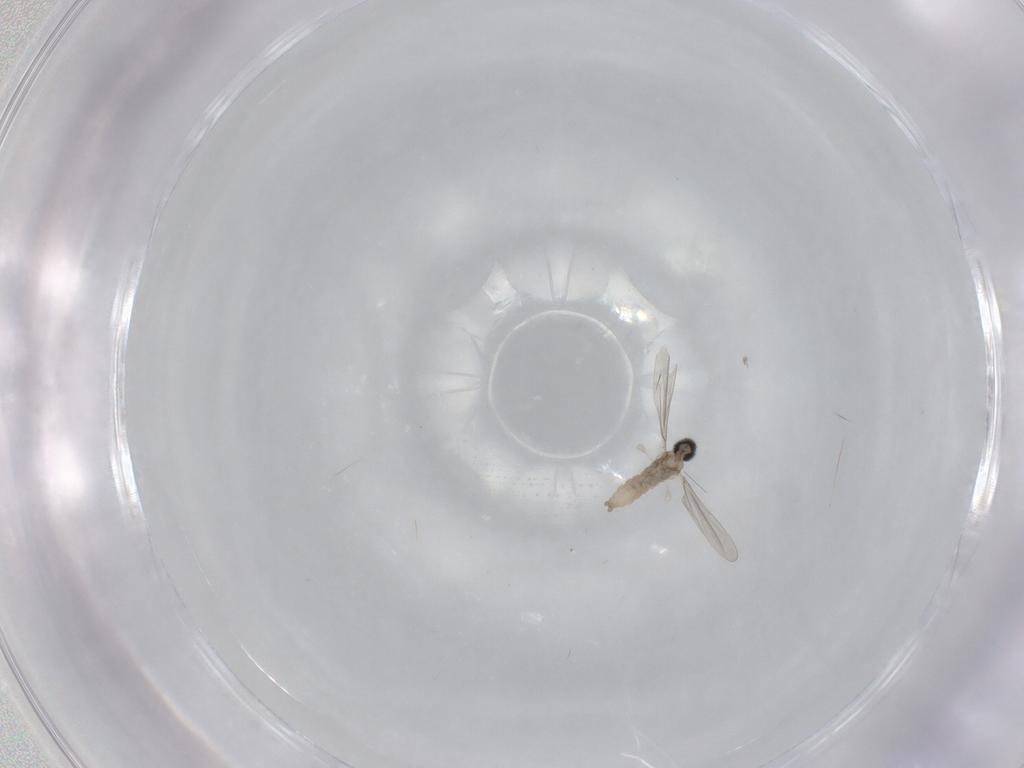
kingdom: Animalia
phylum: Arthropoda
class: Insecta
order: Diptera
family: Cecidomyiidae
